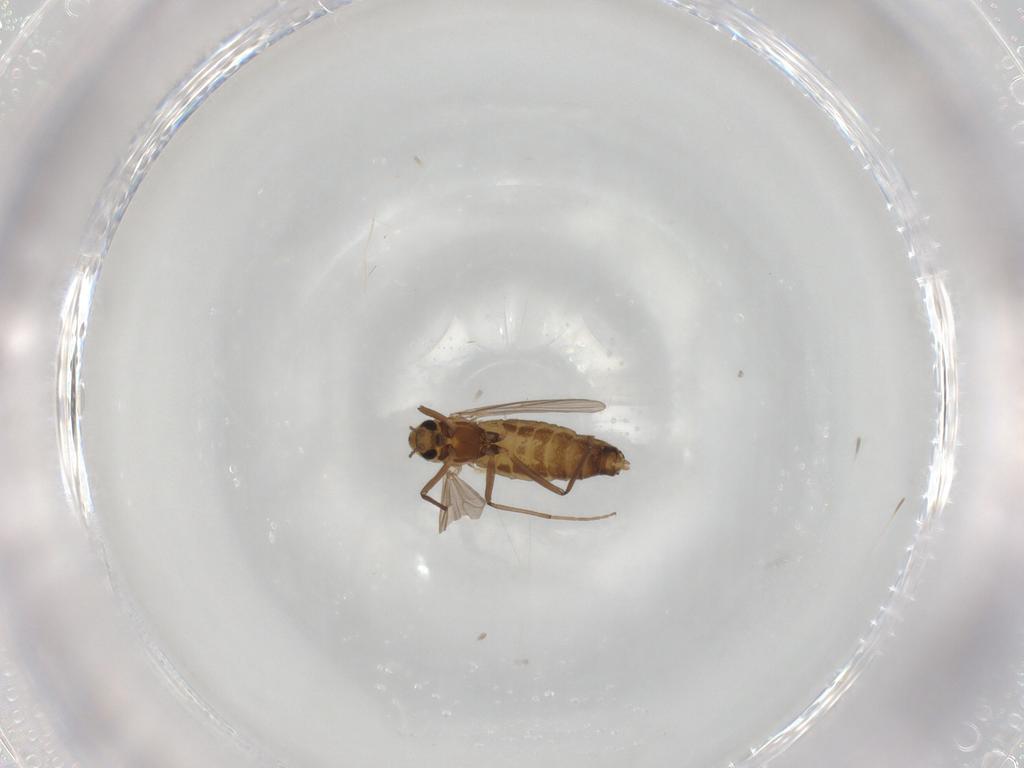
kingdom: Animalia
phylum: Arthropoda
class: Insecta
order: Diptera
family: Chironomidae
